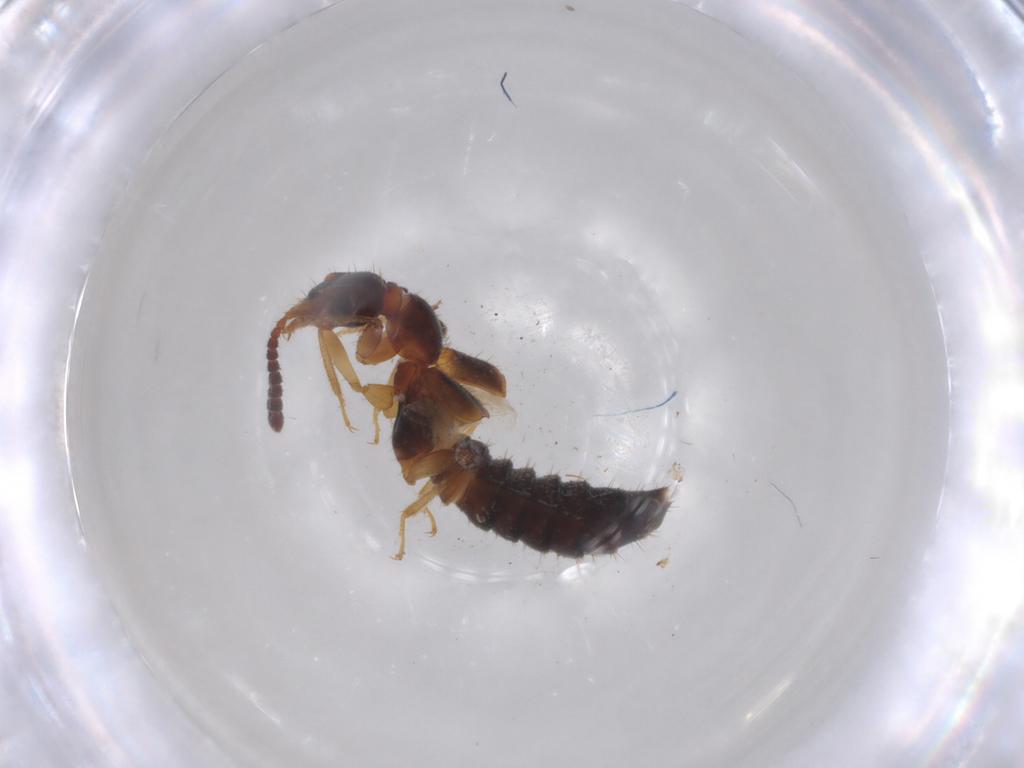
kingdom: Animalia
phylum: Arthropoda
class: Insecta
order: Coleoptera
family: Staphylinidae
